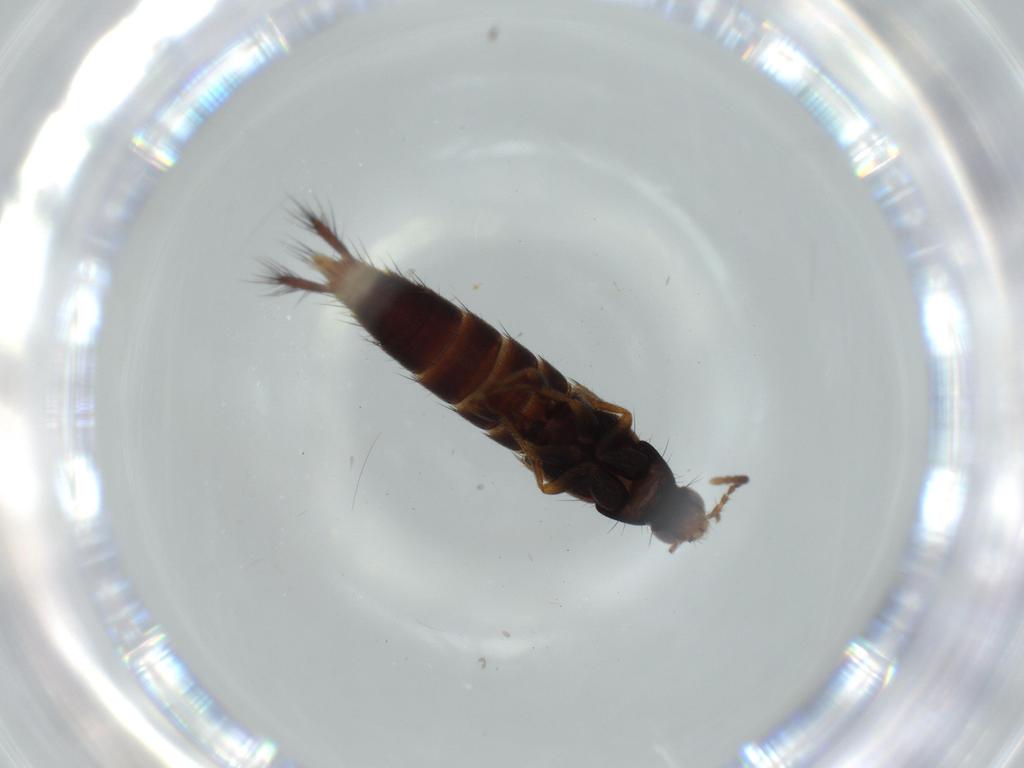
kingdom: Animalia
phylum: Arthropoda
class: Insecta
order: Coleoptera
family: Staphylinidae
